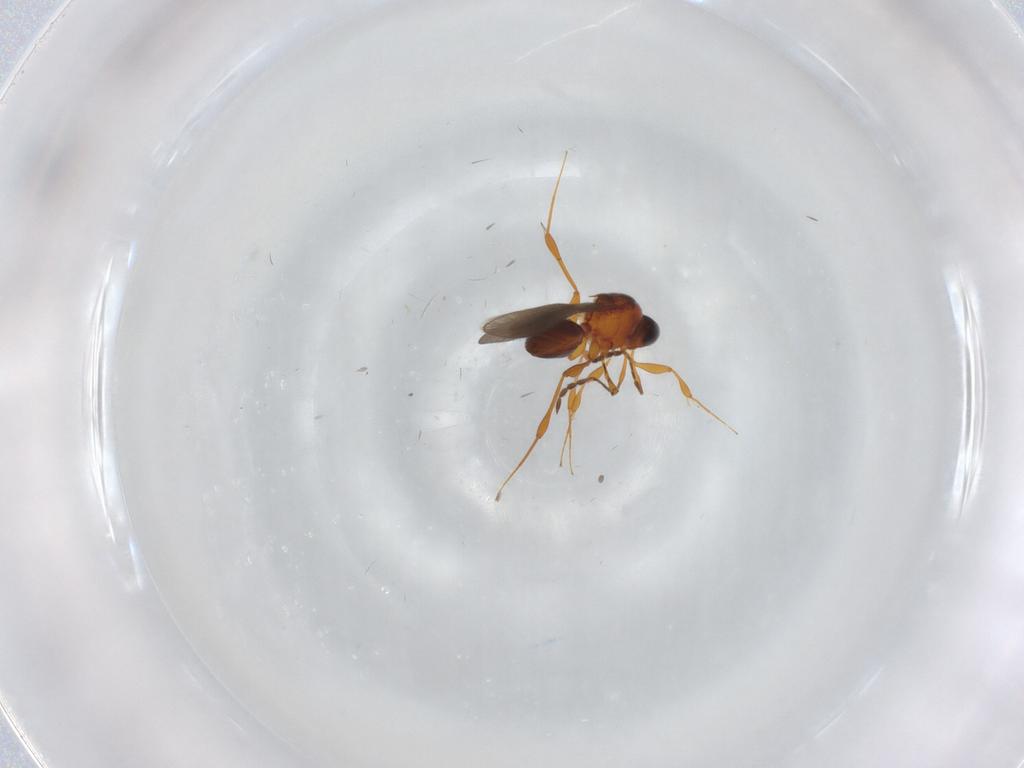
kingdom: Animalia
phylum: Arthropoda
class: Insecta
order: Hymenoptera
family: Platygastridae
